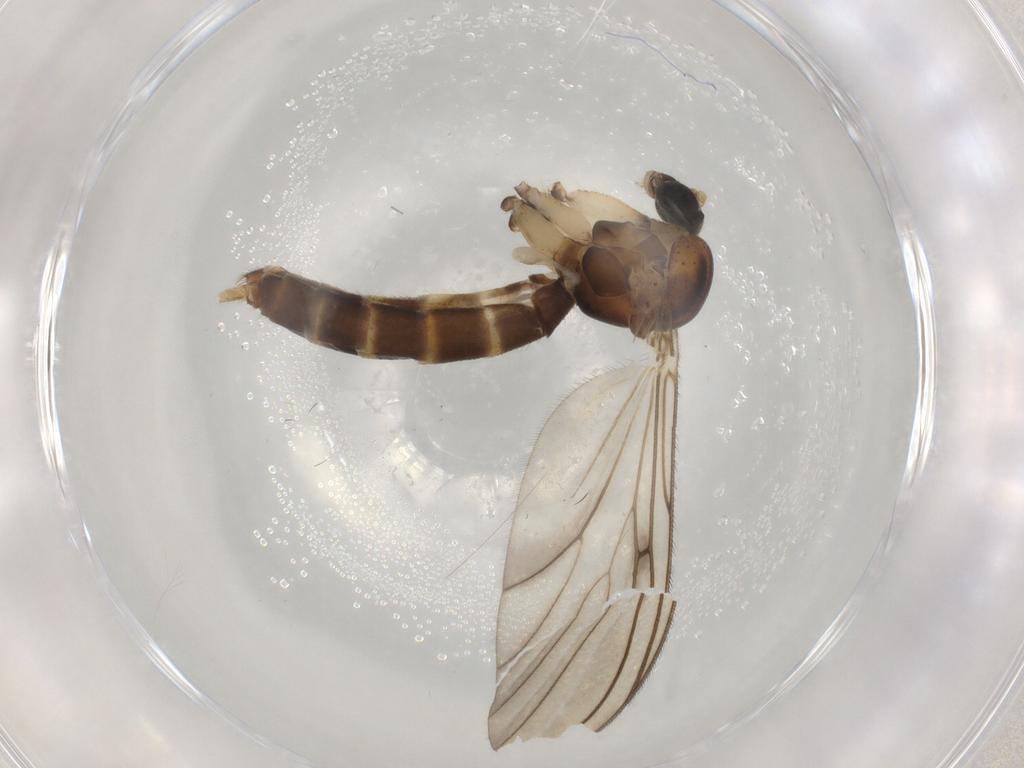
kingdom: Animalia
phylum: Arthropoda
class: Insecta
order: Diptera
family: Mycetophilidae
